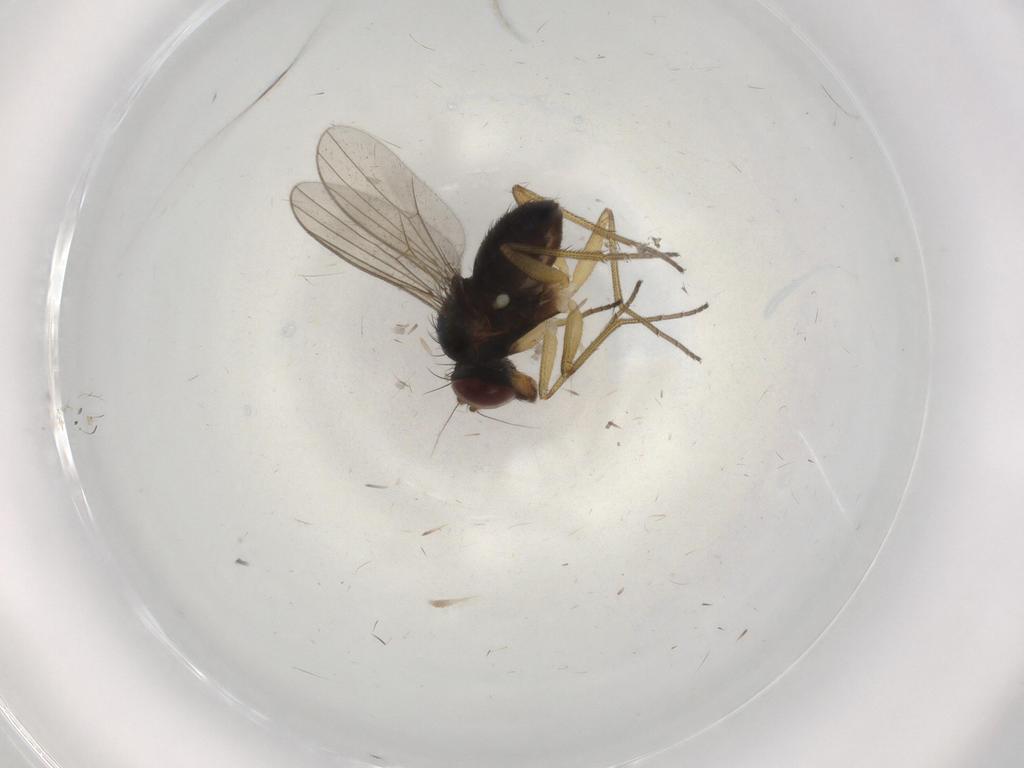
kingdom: Animalia
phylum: Arthropoda
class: Insecta
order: Diptera
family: Dolichopodidae
